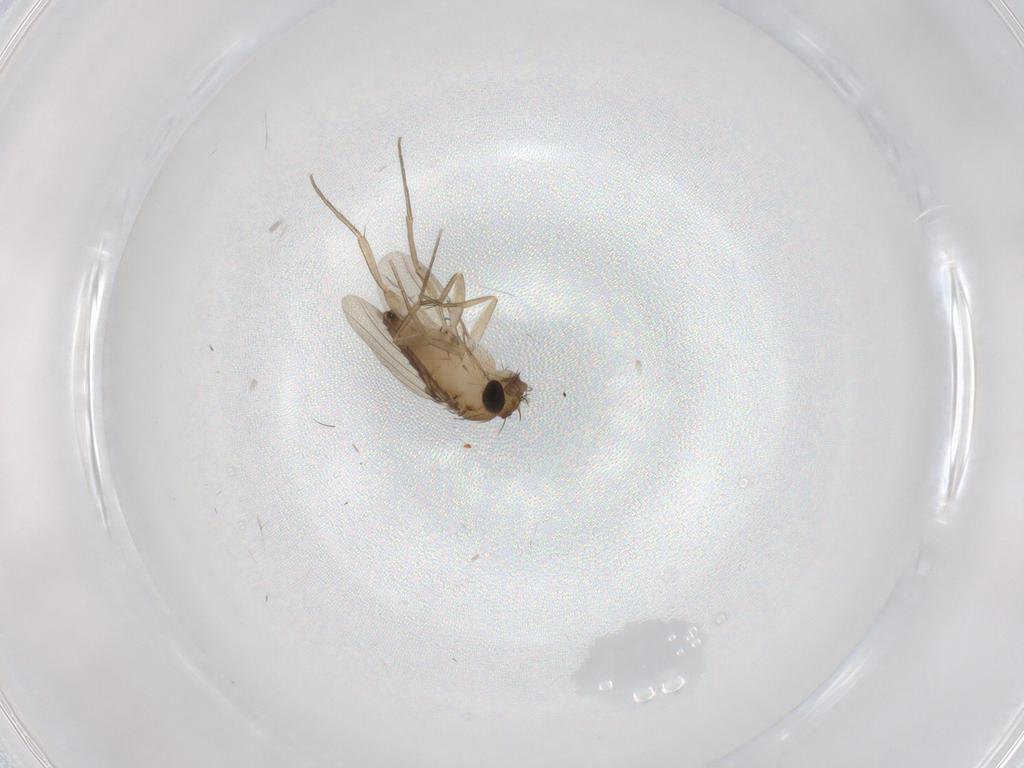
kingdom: Animalia
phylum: Arthropoda
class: Insecta
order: Diptera
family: Phoridae
